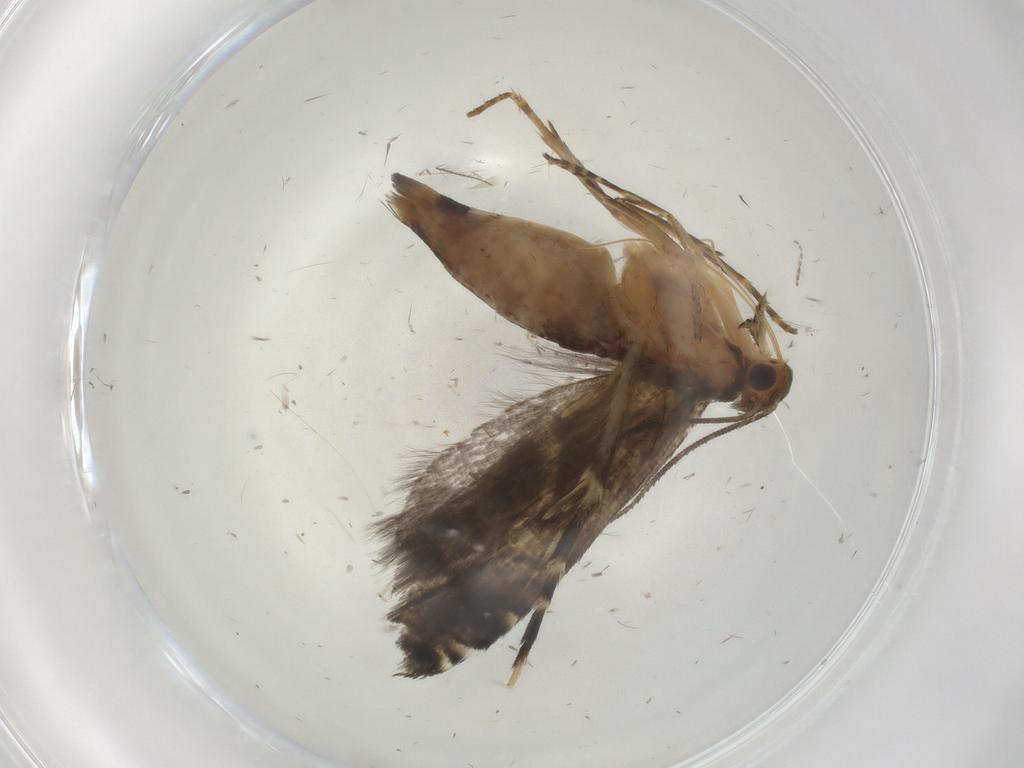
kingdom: Animalia
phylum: Arthropoda
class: Insecta
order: Lepidoptera
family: Glyphipterigidae
